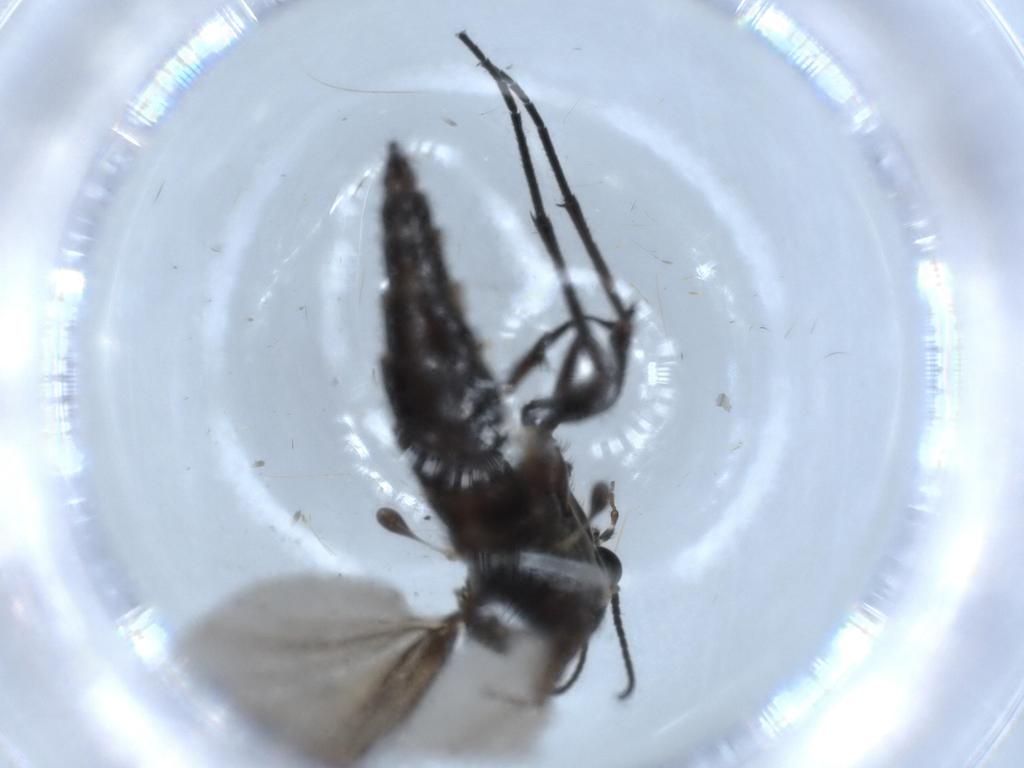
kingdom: Animalia
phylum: Arthropoda
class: Insecta
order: Diptera
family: Sciaridae
